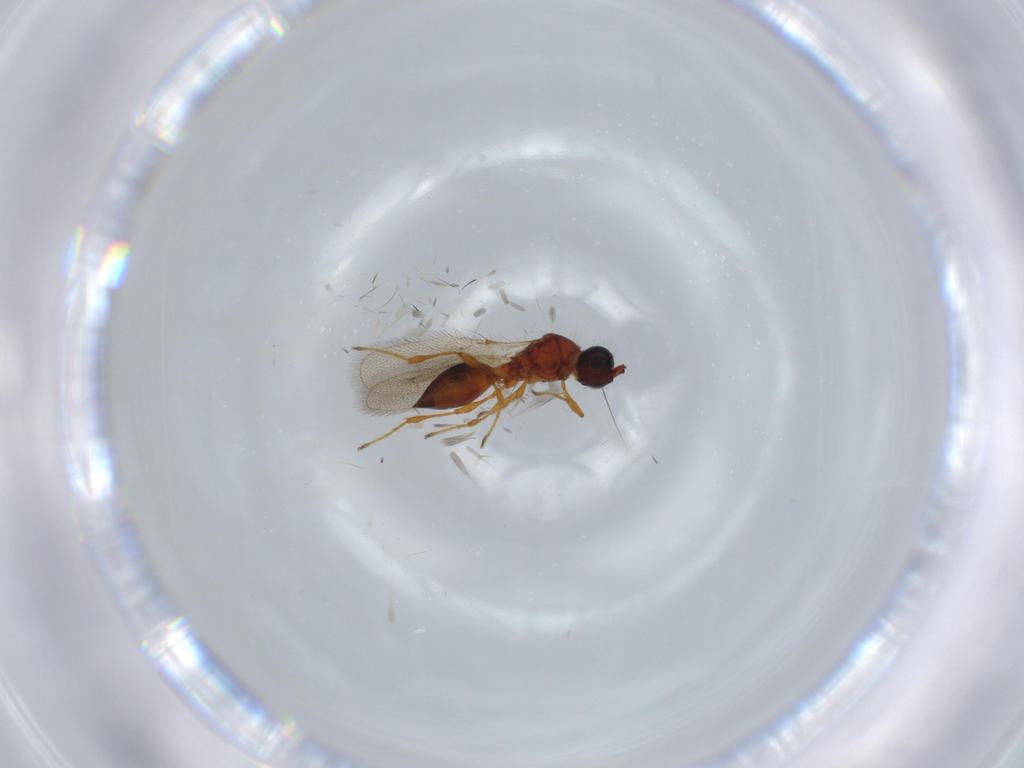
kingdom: Animalia
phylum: Arthropoda
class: Insecta
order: Hymenoptera
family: Diapriidae
